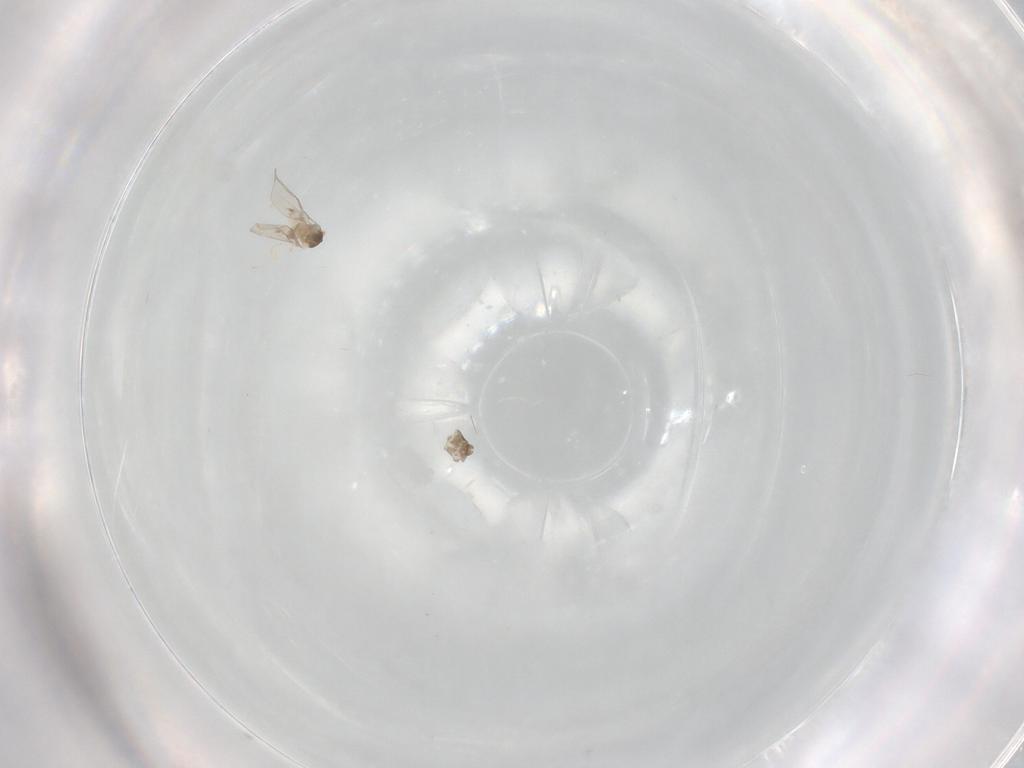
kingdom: Animalia
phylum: Arthropoda
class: Insecta
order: Diptera
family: Cecidomyiidae
